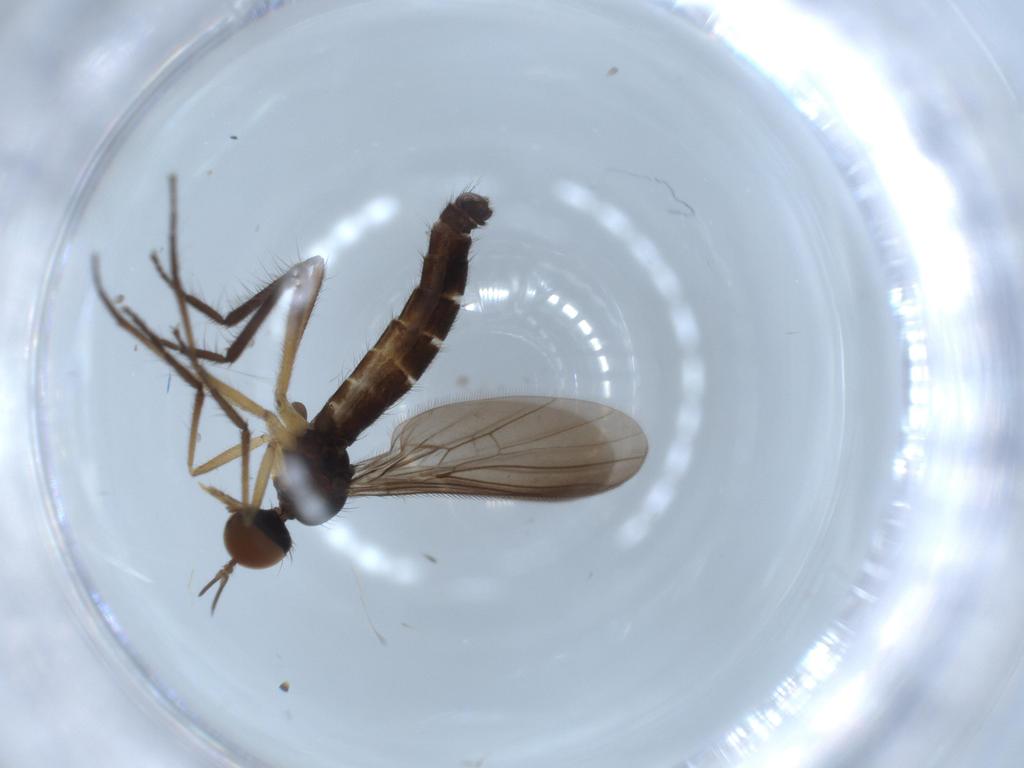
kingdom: Animalia
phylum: Arthropoda
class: Insecta
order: Diptera
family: Empididae
